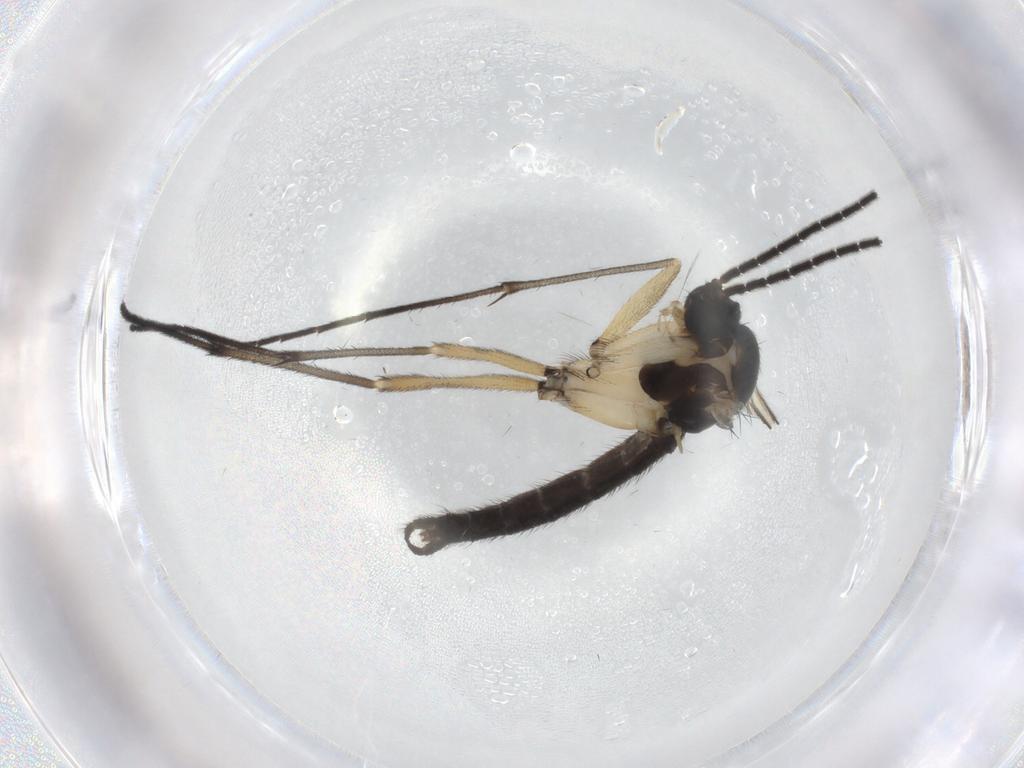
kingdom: Animalia
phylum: Arthropoda
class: Insecta
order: Diptera
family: Sciaridae
